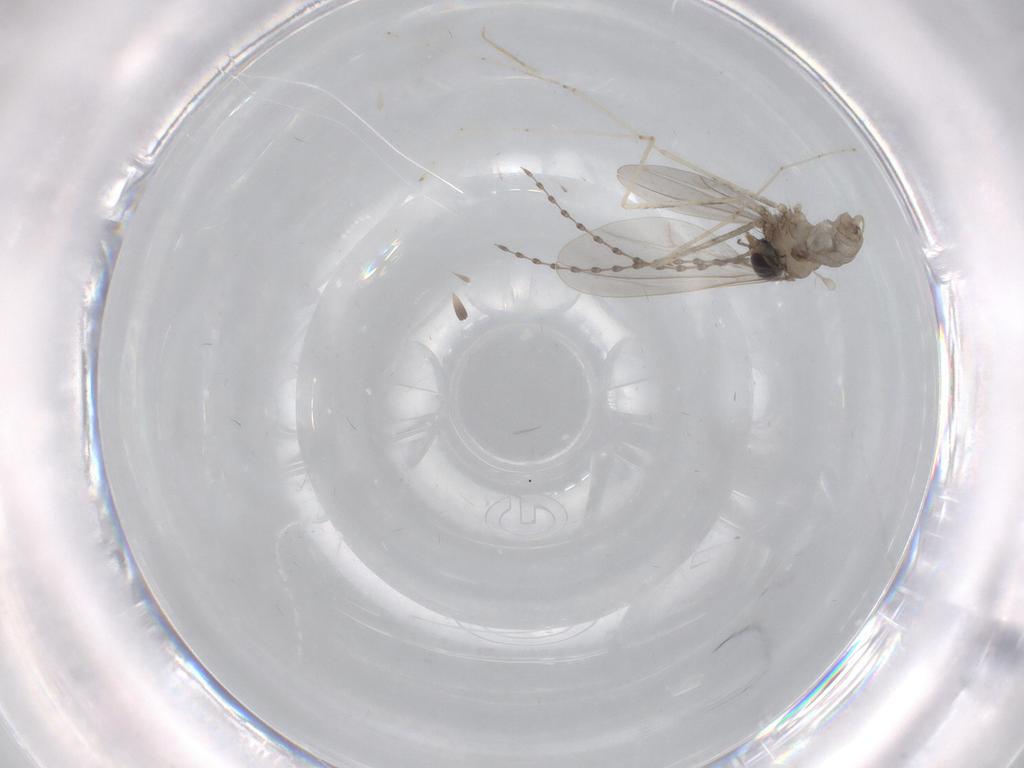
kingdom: Animalia
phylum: Arthropoda
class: Insecta
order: Diptera
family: Cecidomyiidae
